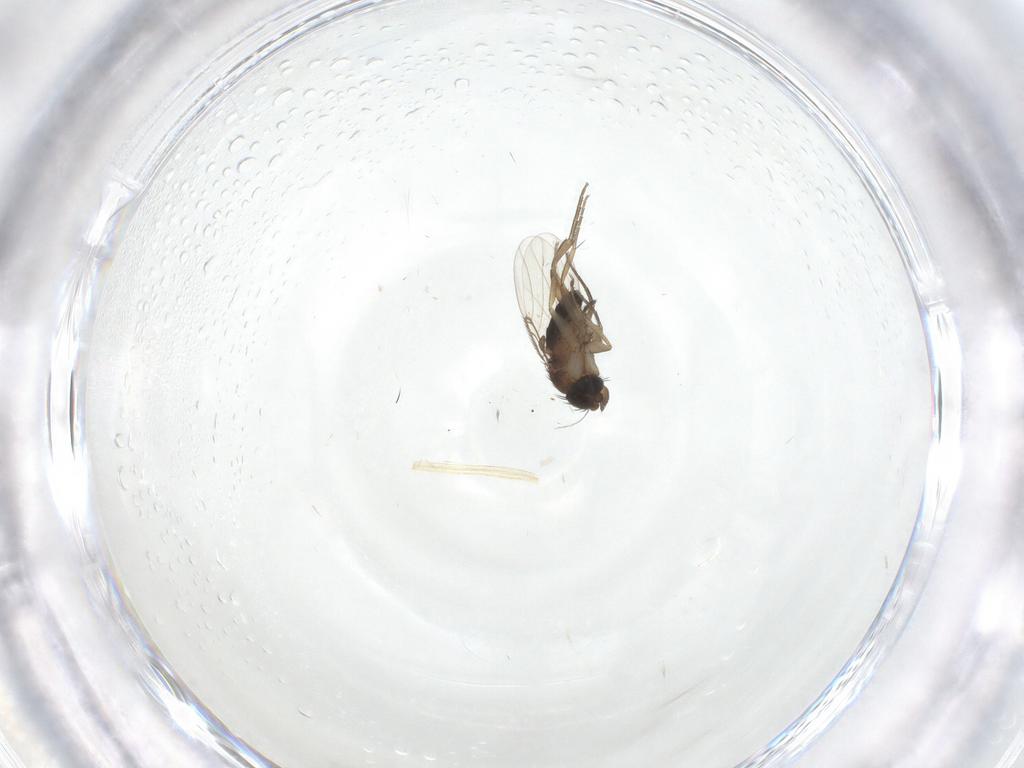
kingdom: Animalia
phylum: Arthropoda
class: Insecta
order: Diptera
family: Phoridae
